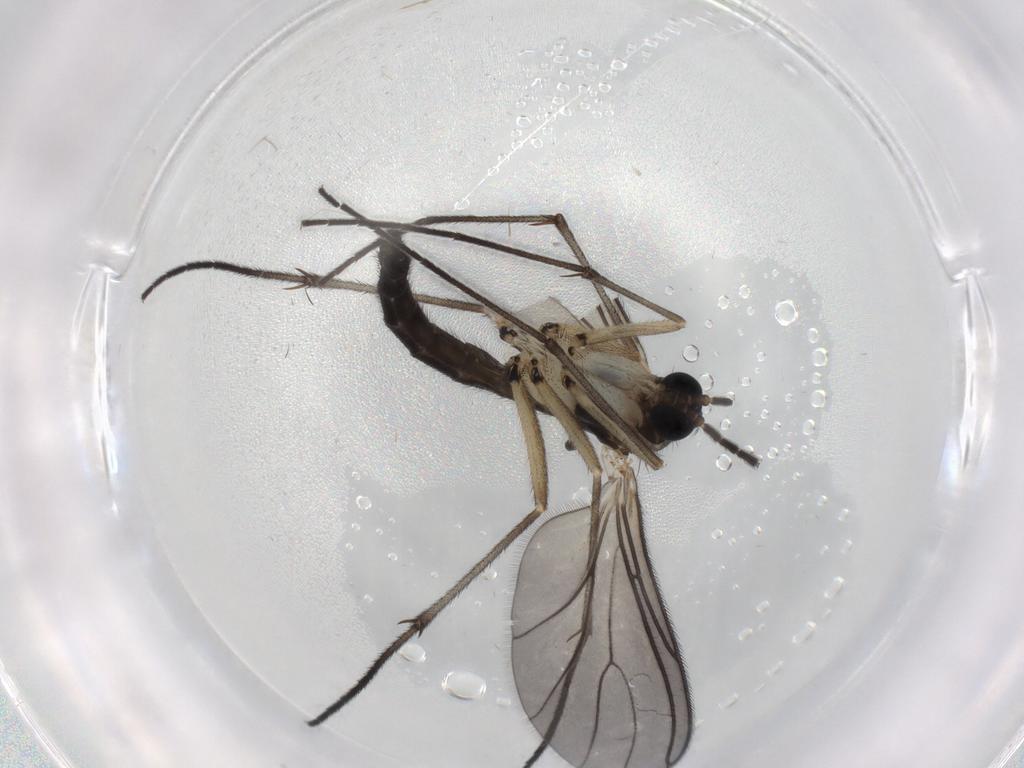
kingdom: Animalia
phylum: Arthropoda
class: Insecta
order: Diptera
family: Sciaridae
